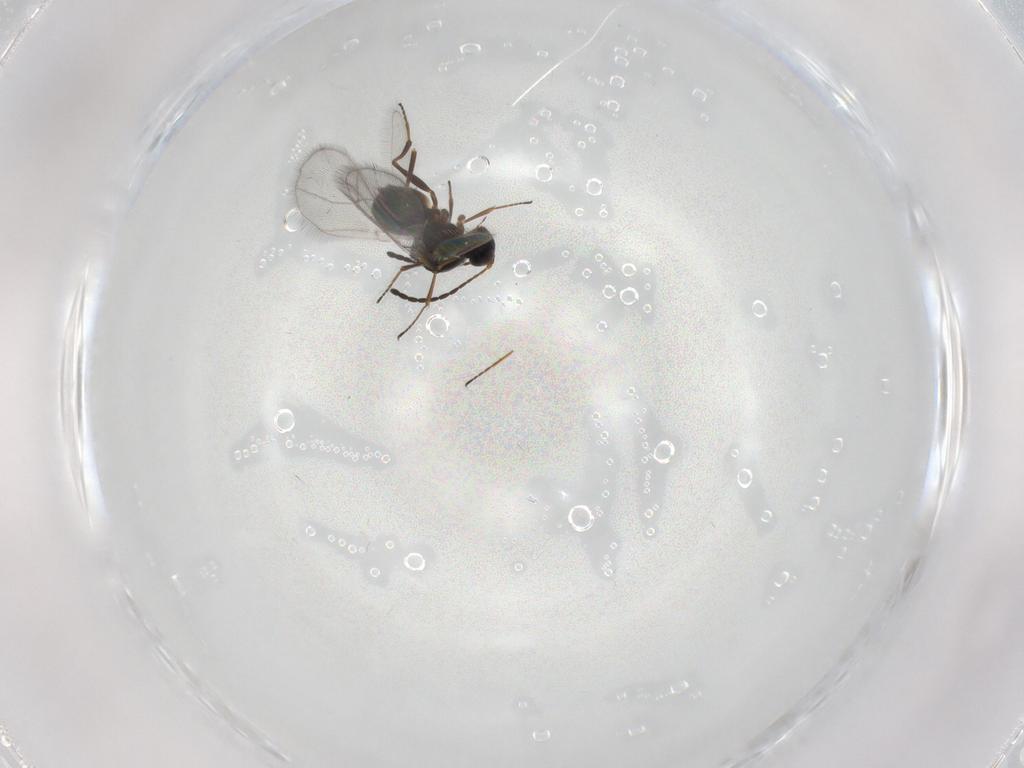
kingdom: Animalia
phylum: Arthropoda
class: Insecta
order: Hymenoptera
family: Figitidae
